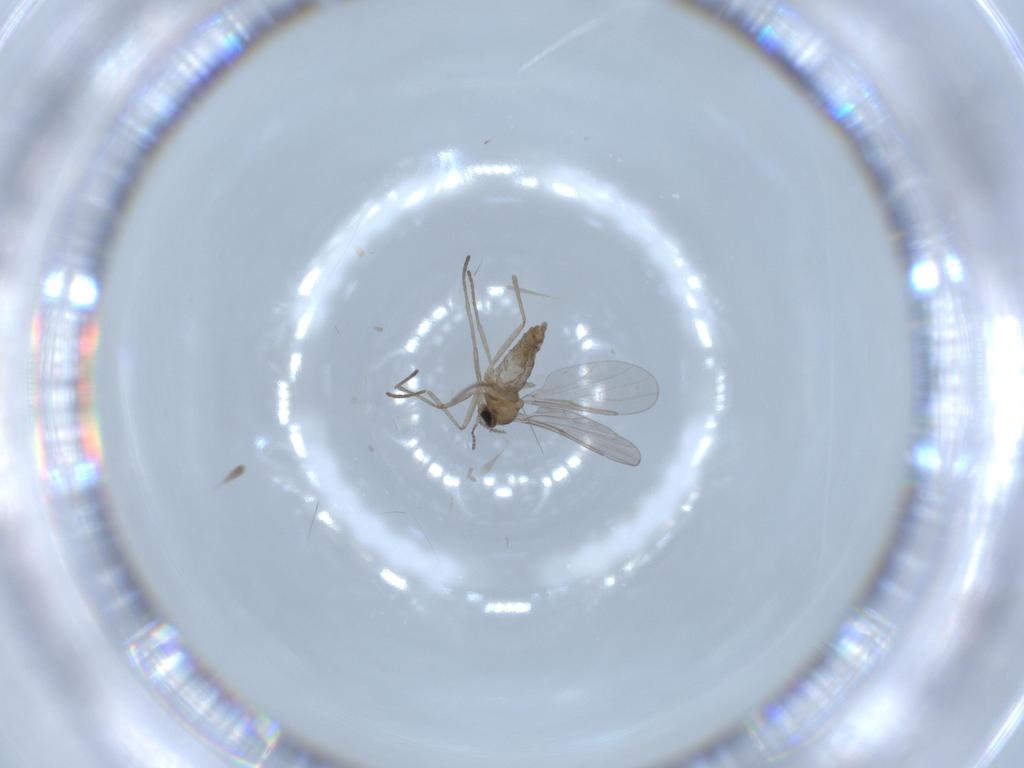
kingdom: Animalia
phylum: Arthropoda
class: Insecta
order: Diptera
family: Cecidomyiidae
